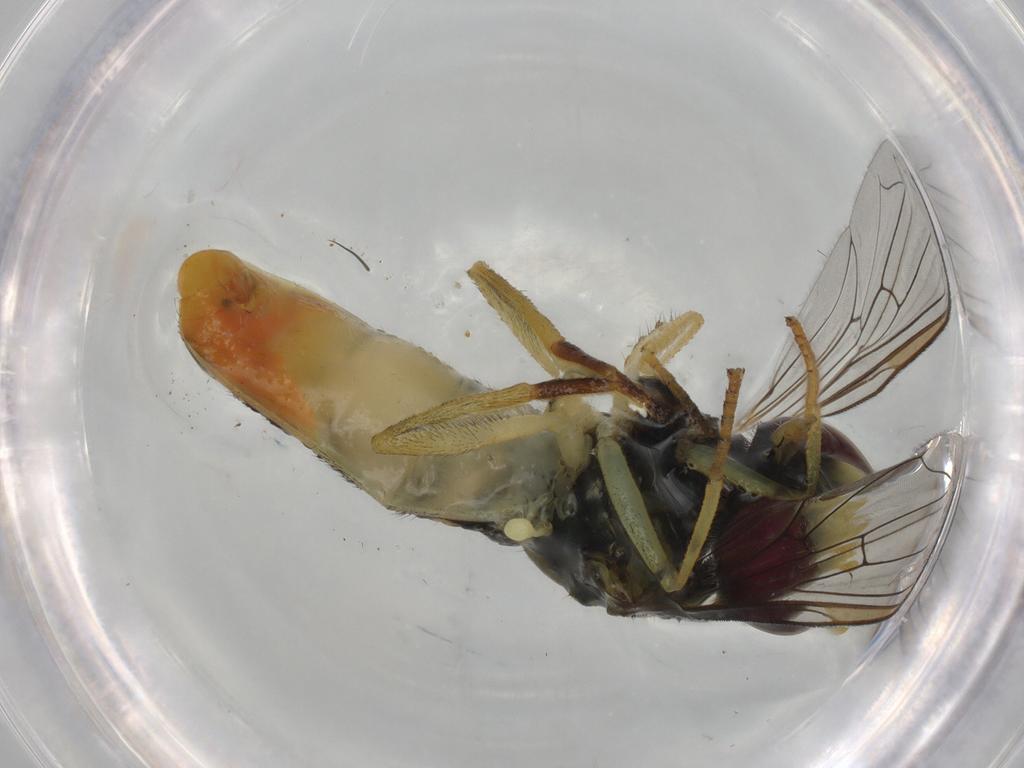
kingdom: Animalia
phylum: Arthropoda
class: Insecta
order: Diptera
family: Syrphidae
